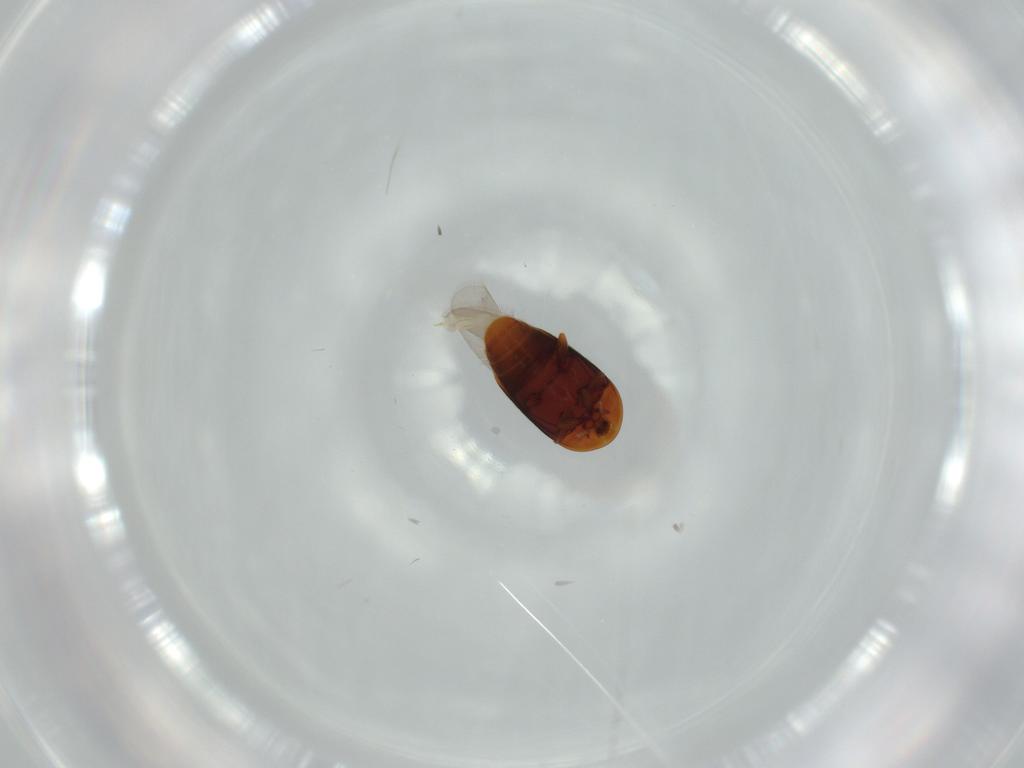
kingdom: Animalia
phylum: Arthropoda
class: Insecta
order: Coleoptera
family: Corylophidae
